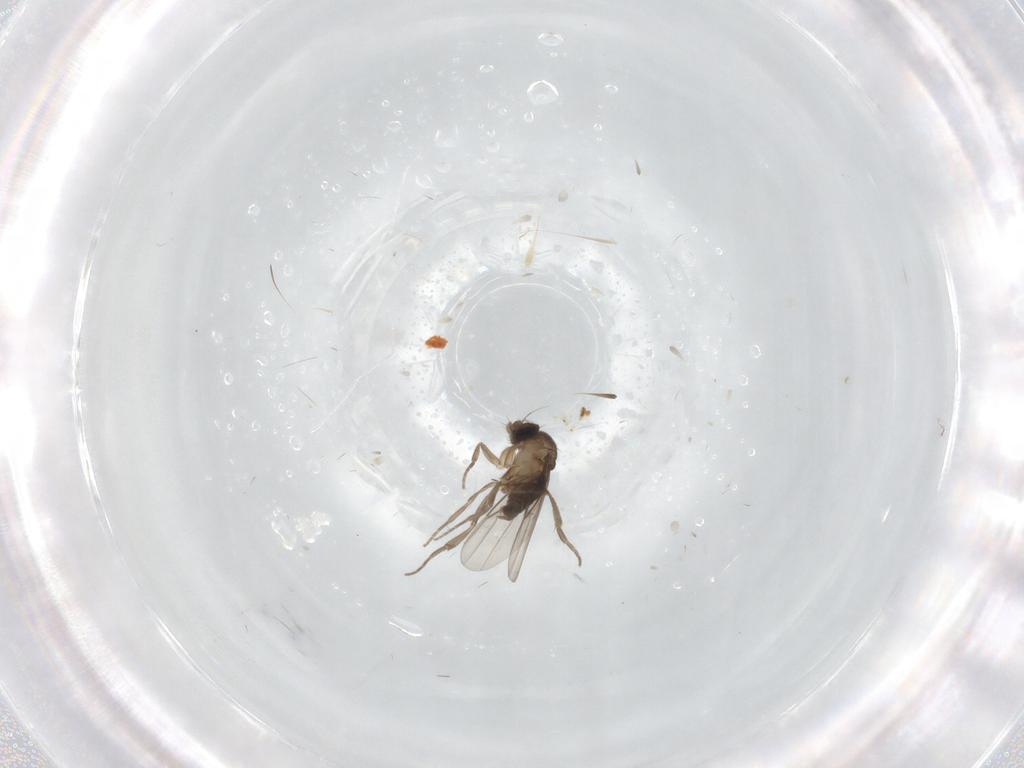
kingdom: Animalia
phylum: Arthropoda
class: Insecta
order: Diptera
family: Phoridae
